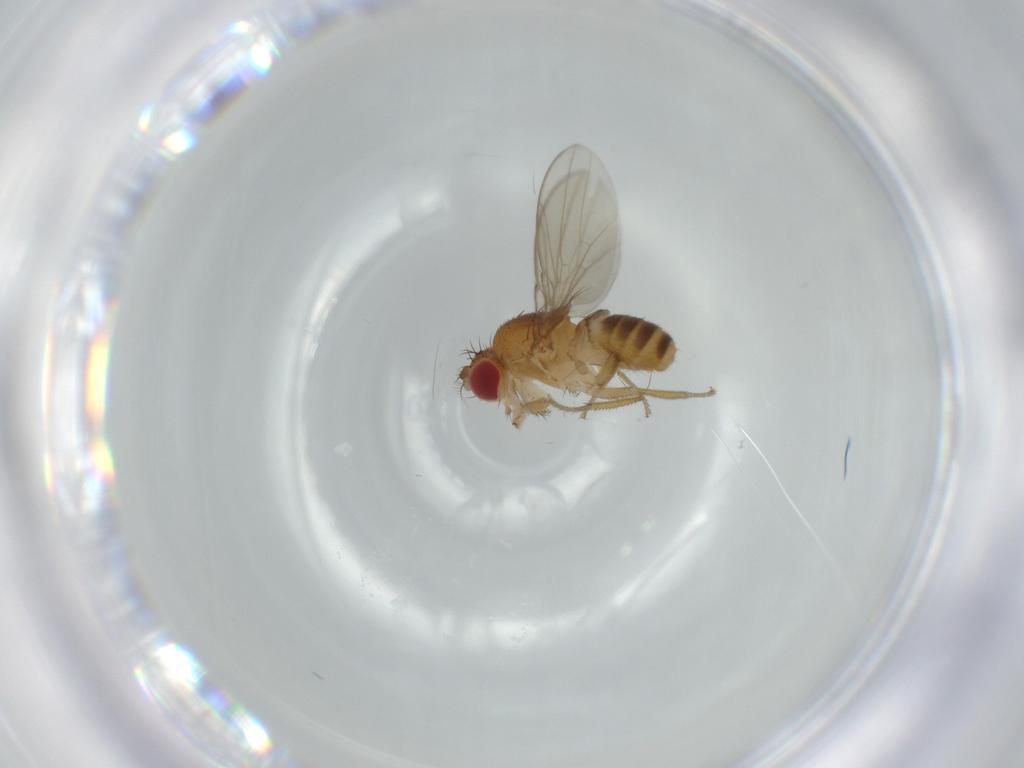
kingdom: Animalia
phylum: Arthropoda
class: Insecta
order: Diptera
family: Drosophilidae
